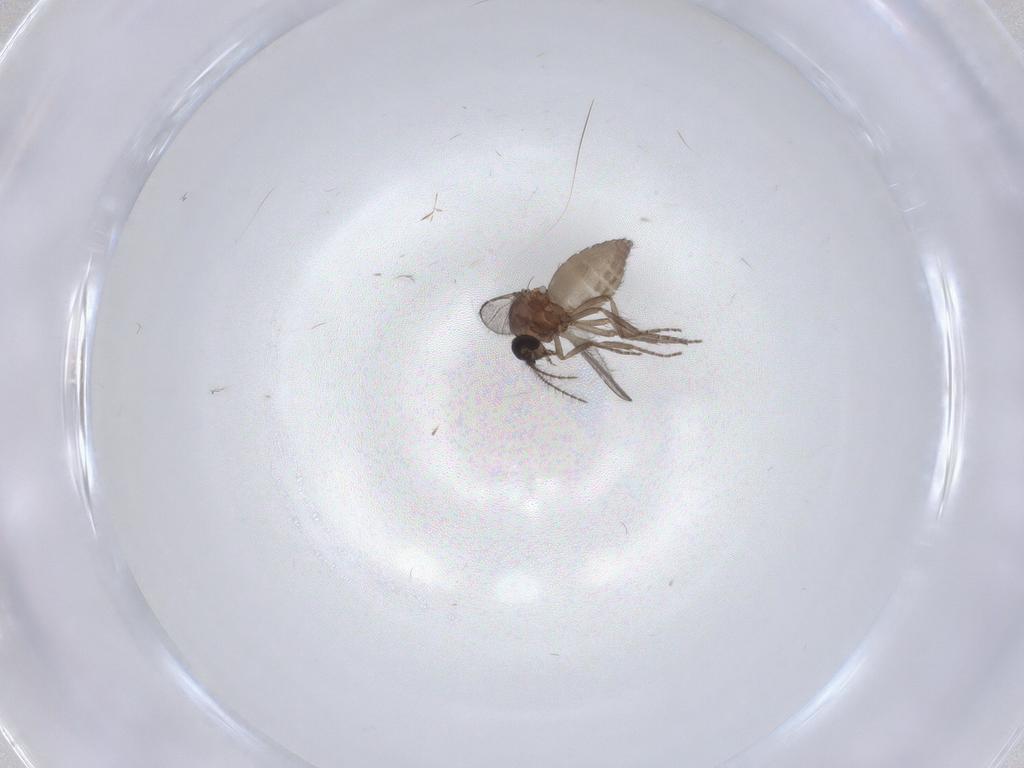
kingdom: Animalia
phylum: Arthropoda
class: Insecta
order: Diptera
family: Ceratopogonidae
